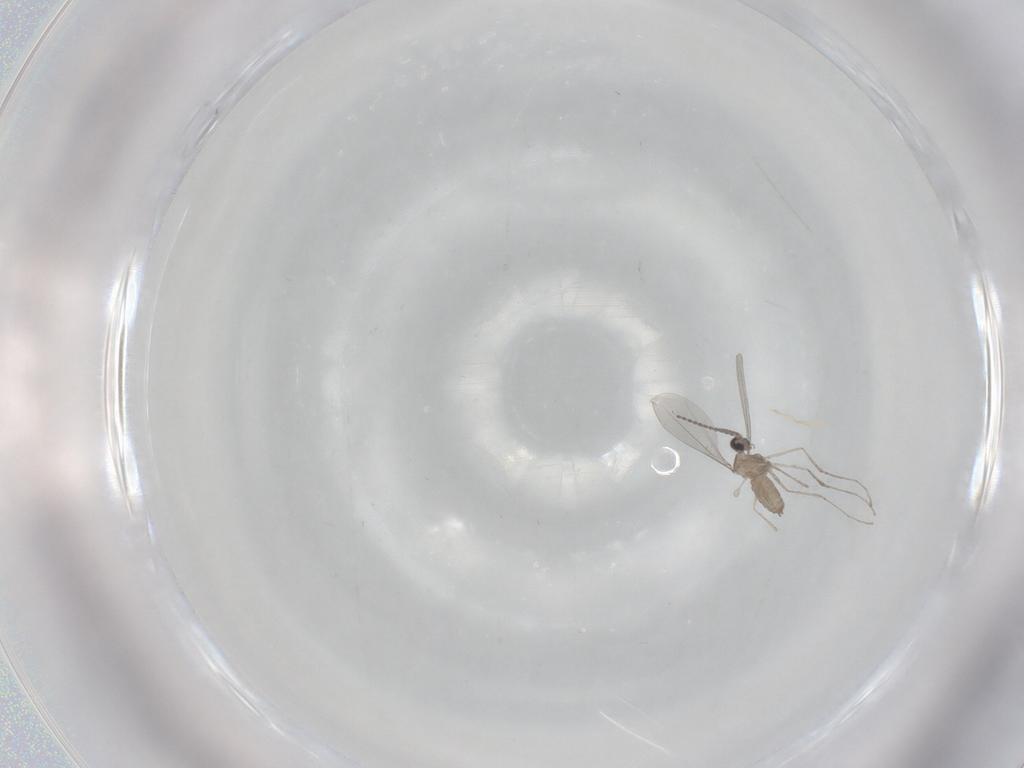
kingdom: Animalia
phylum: Arthropoda
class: Insecta
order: Diptera
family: Cecidomyiidae
